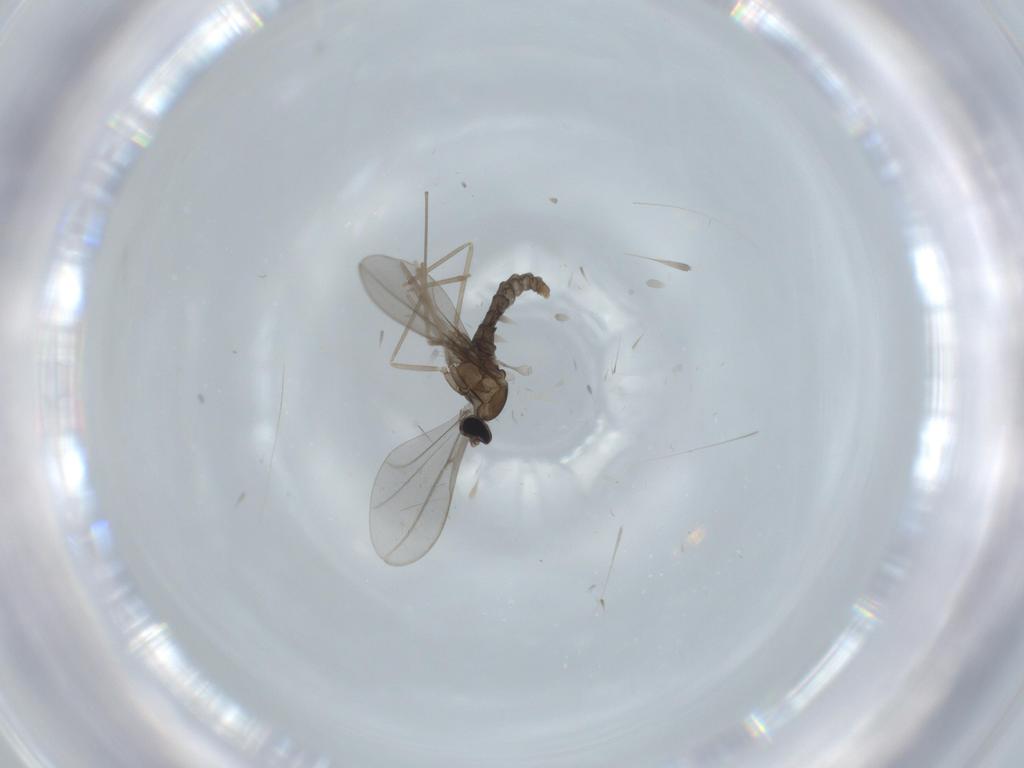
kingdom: Animalia
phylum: Arthropoda
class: Insecta
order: Diptera
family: Cecidomyiidae
